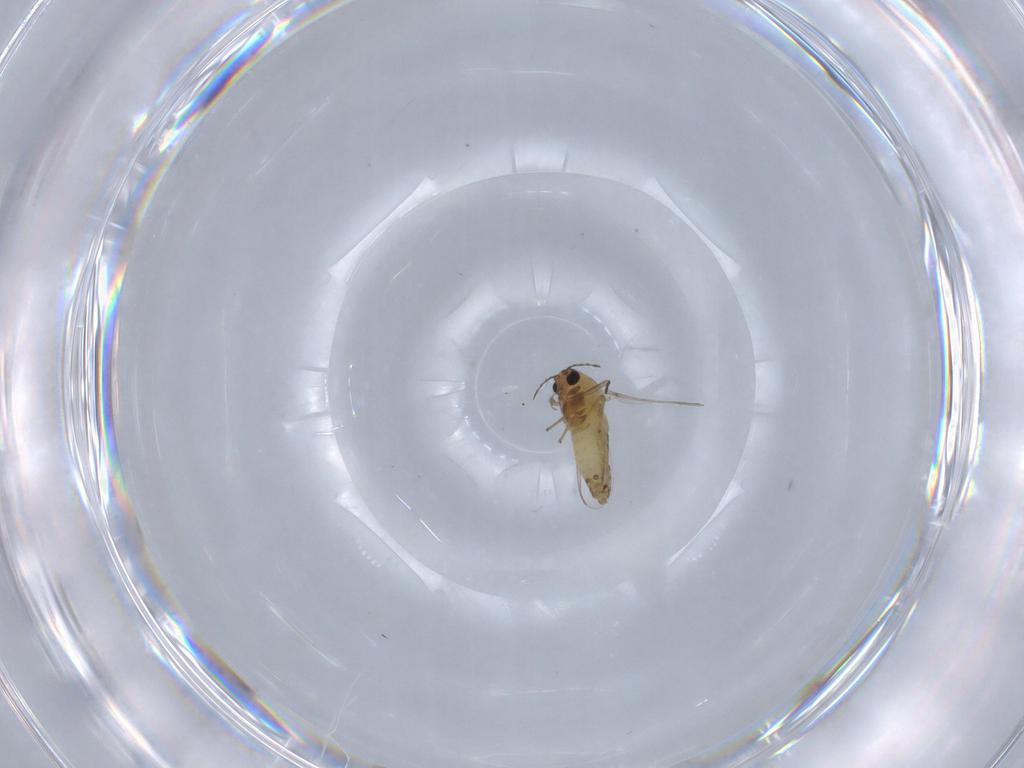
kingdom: Animalia
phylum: Arthropoda
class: Insecta
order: Diptera
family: Chironomidae
